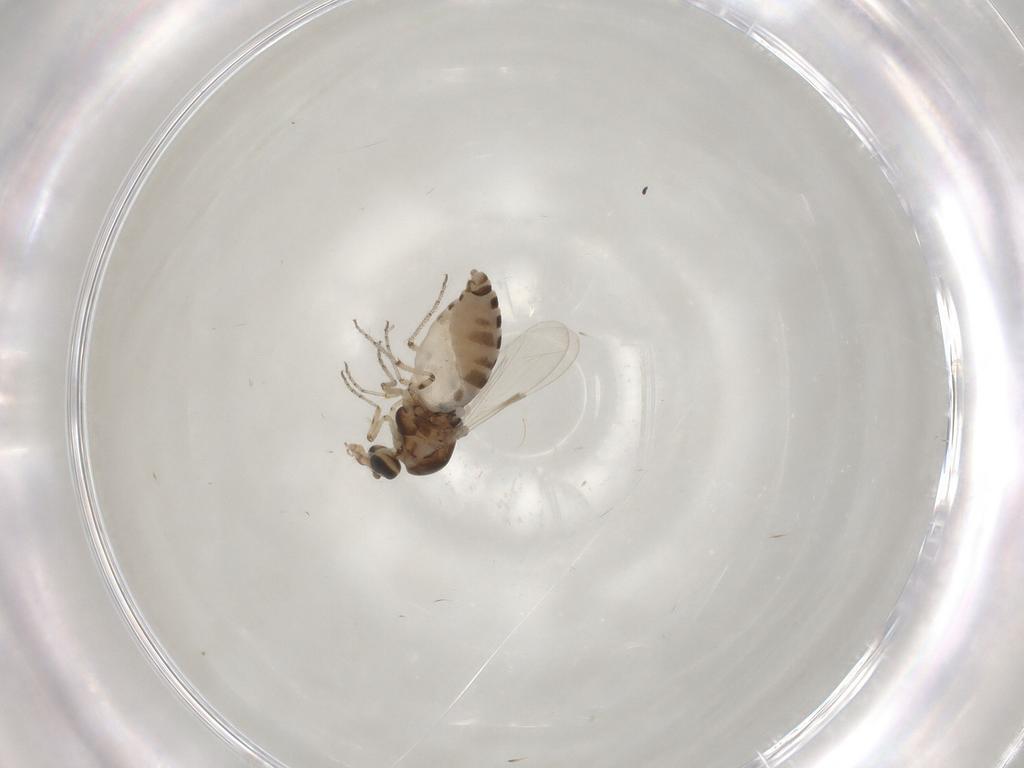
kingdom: Animalia
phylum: Arthropoda
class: Insecta
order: Diptera
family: Ceratopogonidae
